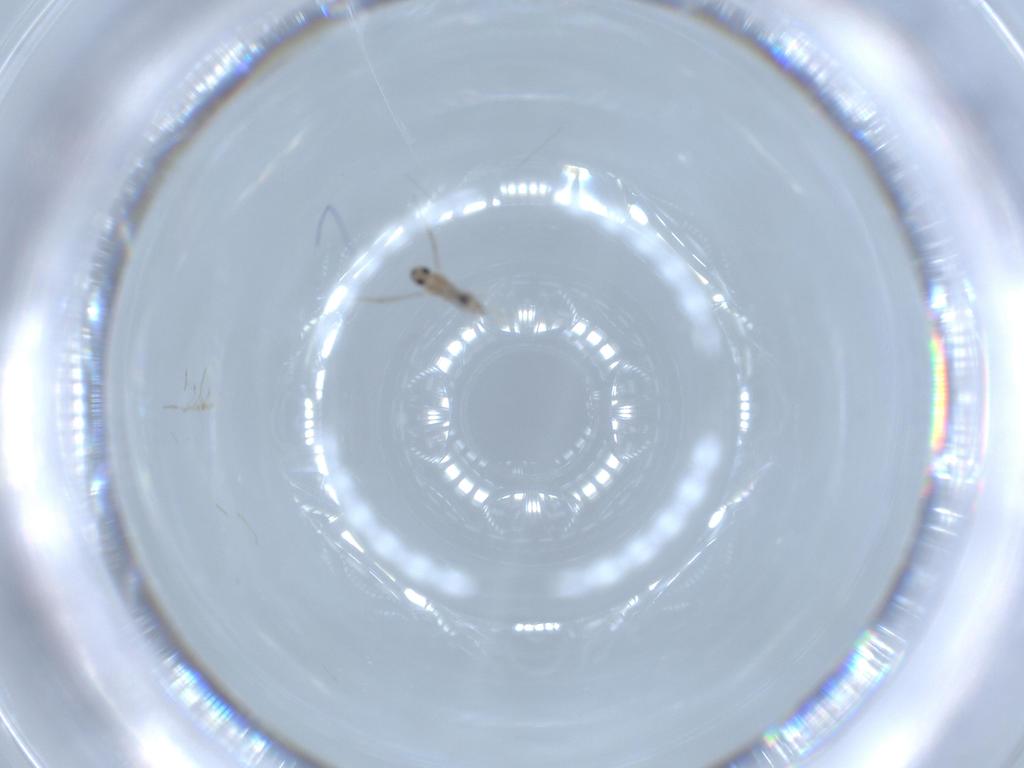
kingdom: Animalia
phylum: Arthropoda
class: Insecta
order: Diptera
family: Cecidomyiidae
